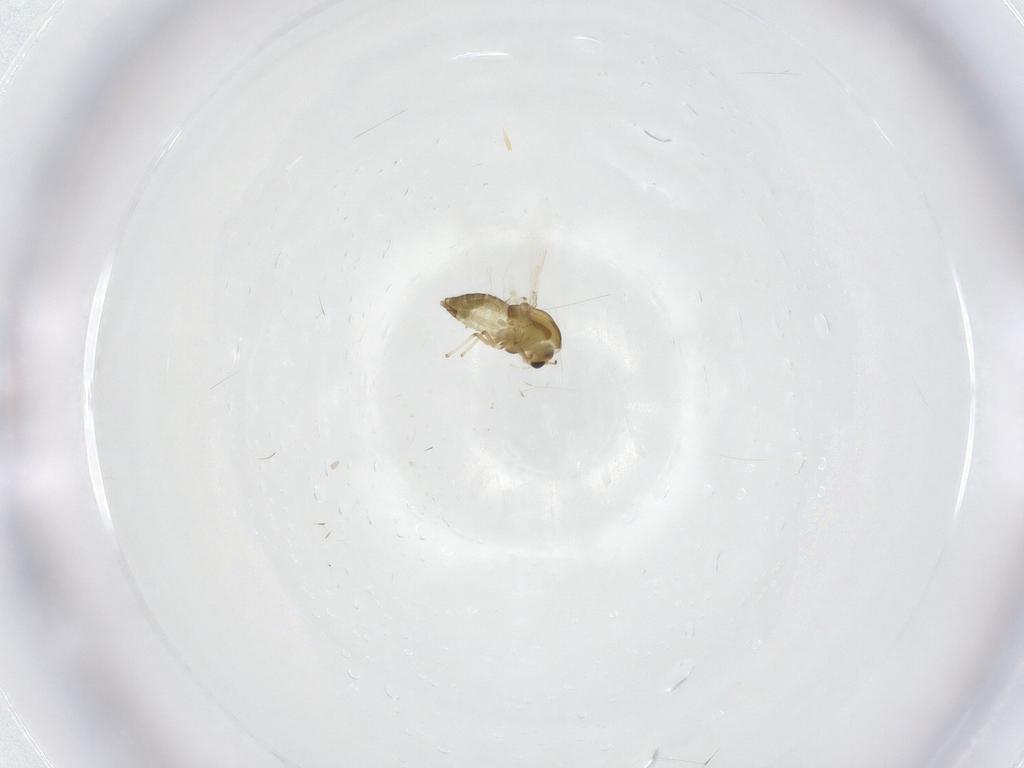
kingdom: Animalia
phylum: Arthropoda
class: Insecta
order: Diptera
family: Chironomidae
